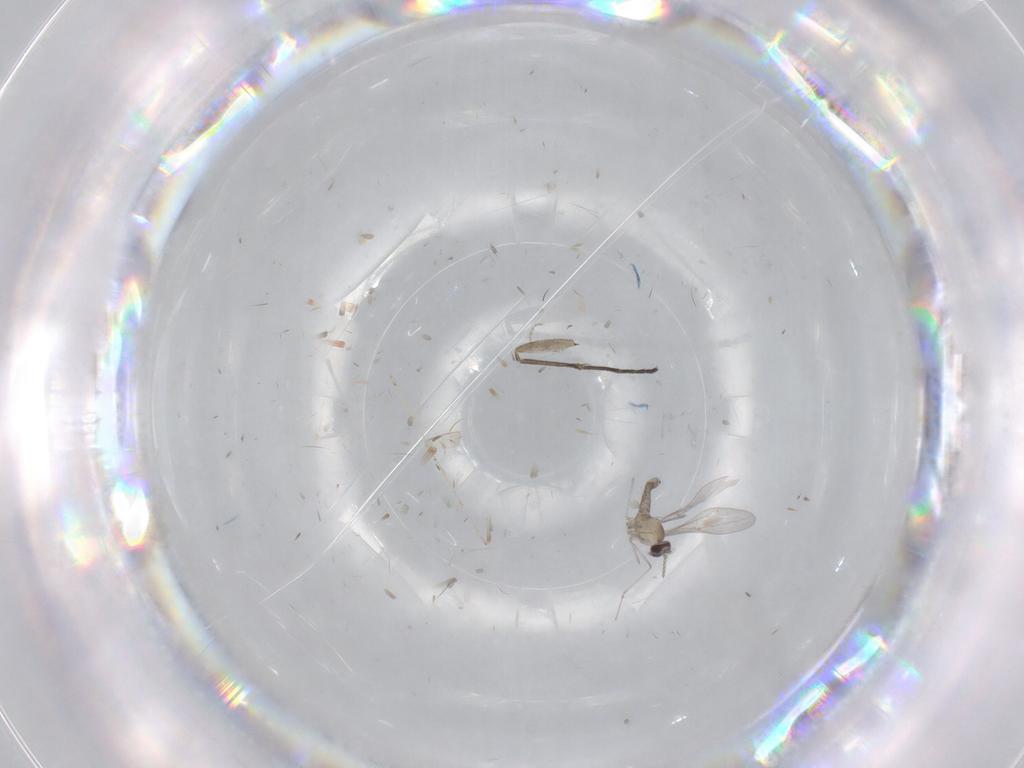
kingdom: Animalia
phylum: Arthropoda
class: Insecta
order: Diptera
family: Sciaridae
